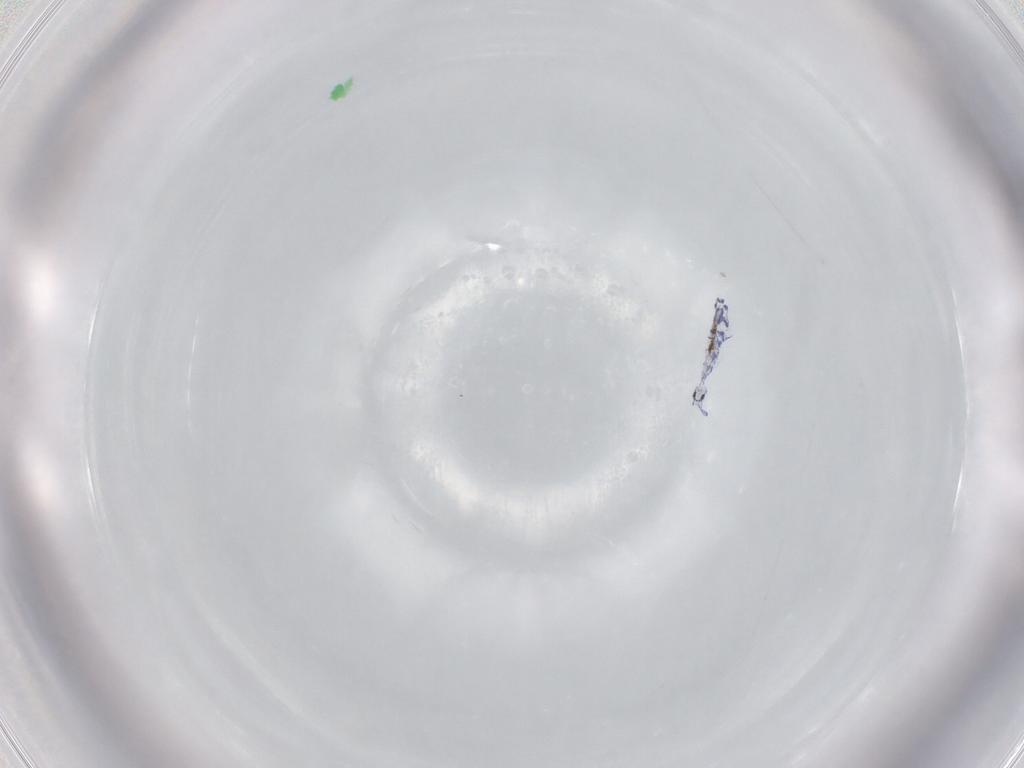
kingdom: Animalia
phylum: Arthropoda
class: Collembola
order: Entomobryomorpha
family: Entomobryidae
